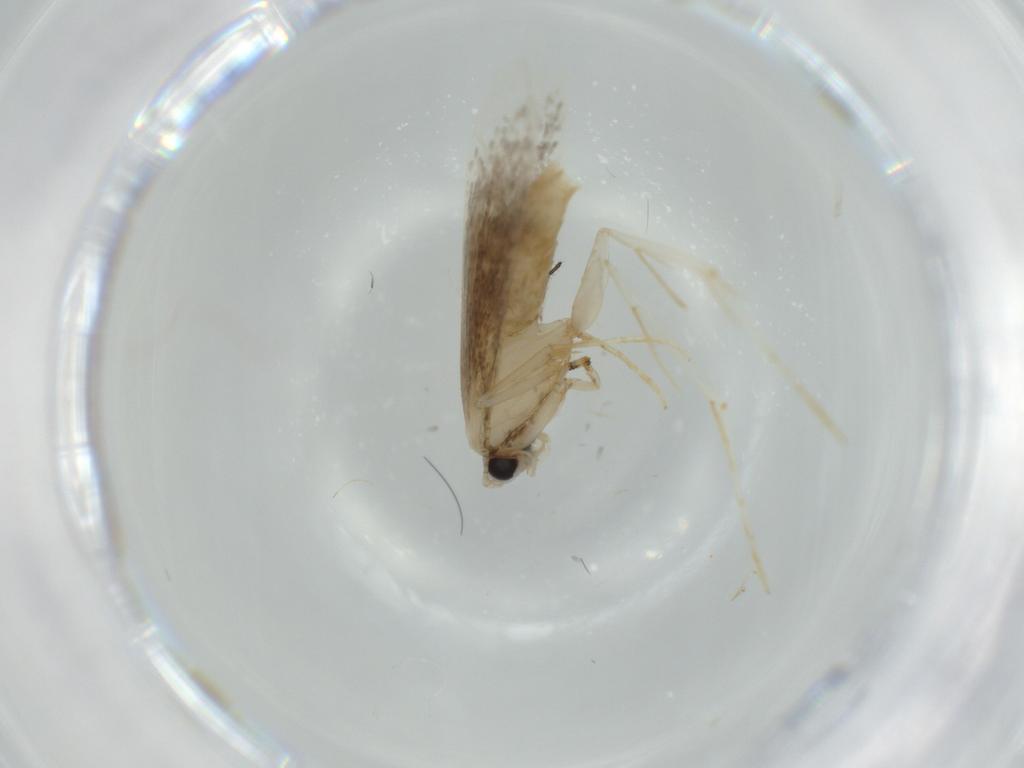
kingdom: Animalia
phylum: Arthropoda
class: Insecta
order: Lepidoptera
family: Tineidae
